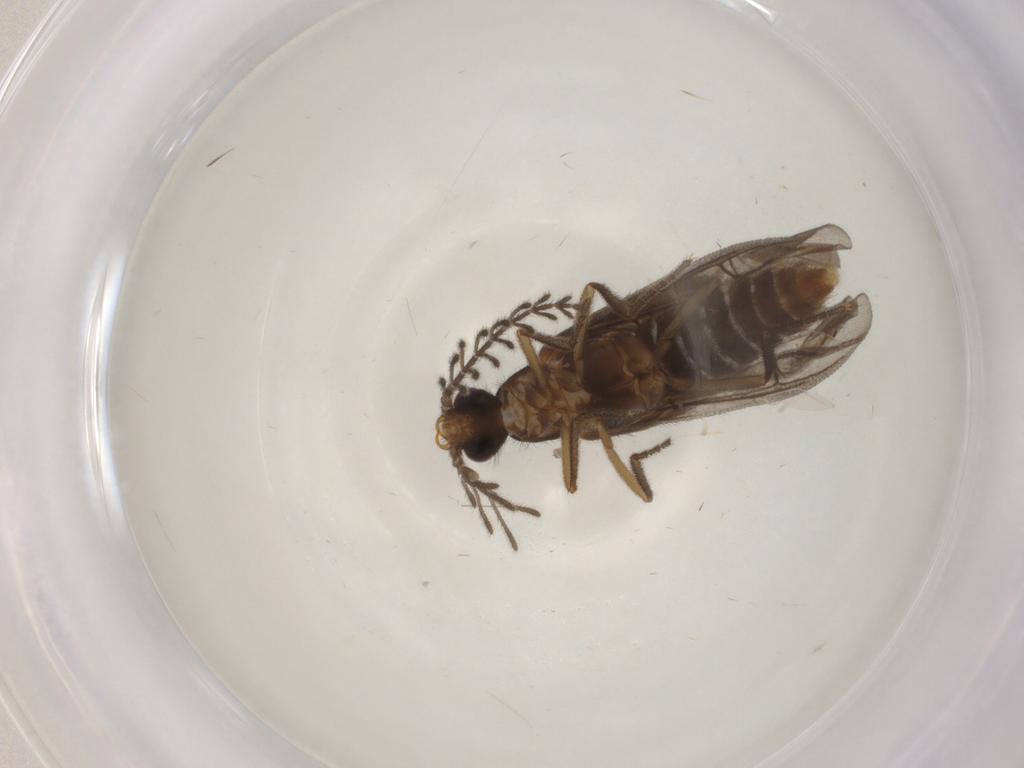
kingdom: Animalia
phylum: Arthropoda
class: Insecta
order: Coleoptera
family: Ptilodactylidae
